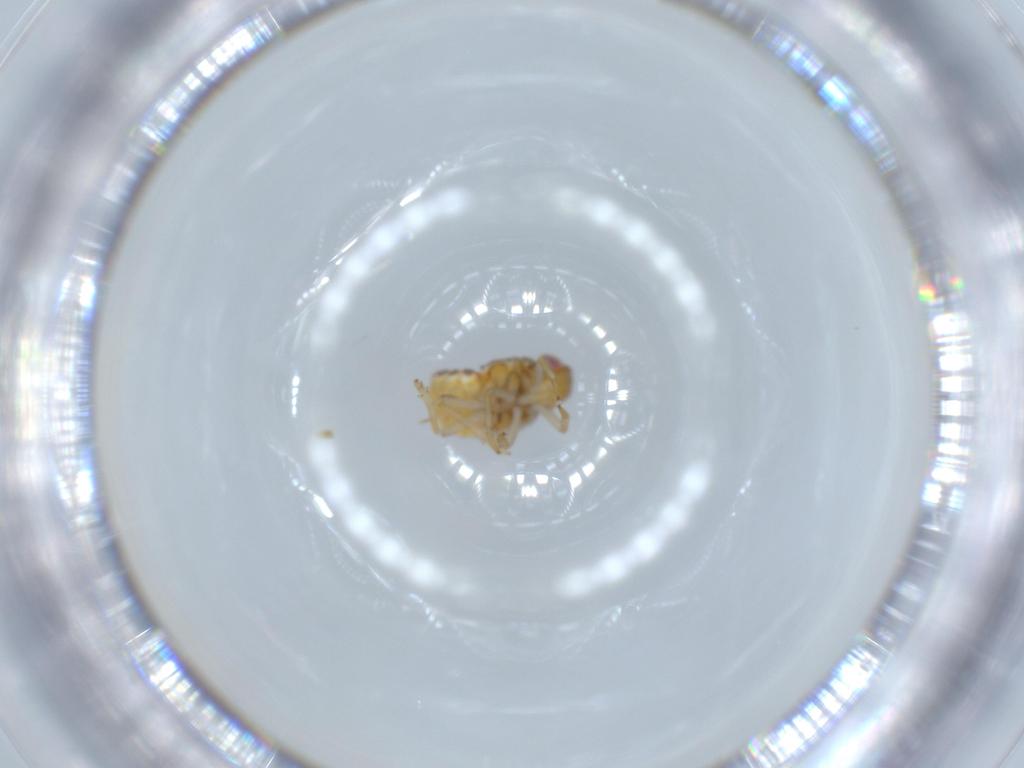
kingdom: Animalia
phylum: Arthropoda
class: Insecta
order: Hemiptera
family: Issidae
